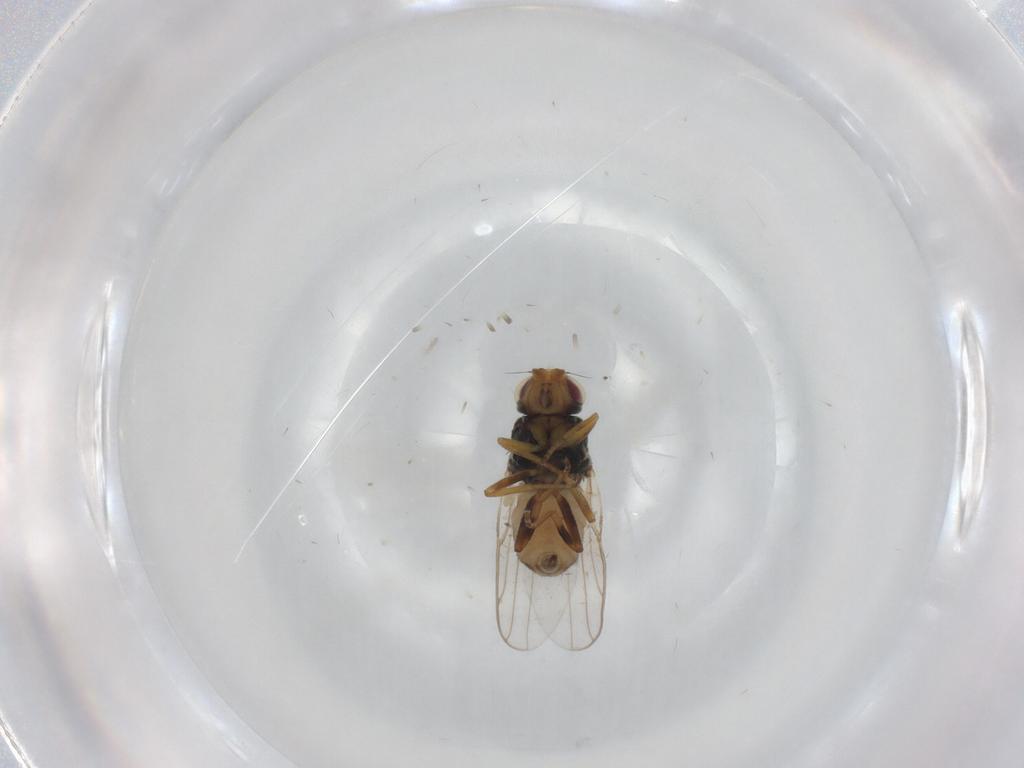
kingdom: Animalia
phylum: Arthropoda
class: Insecta
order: Diptera
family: Chloropidae
